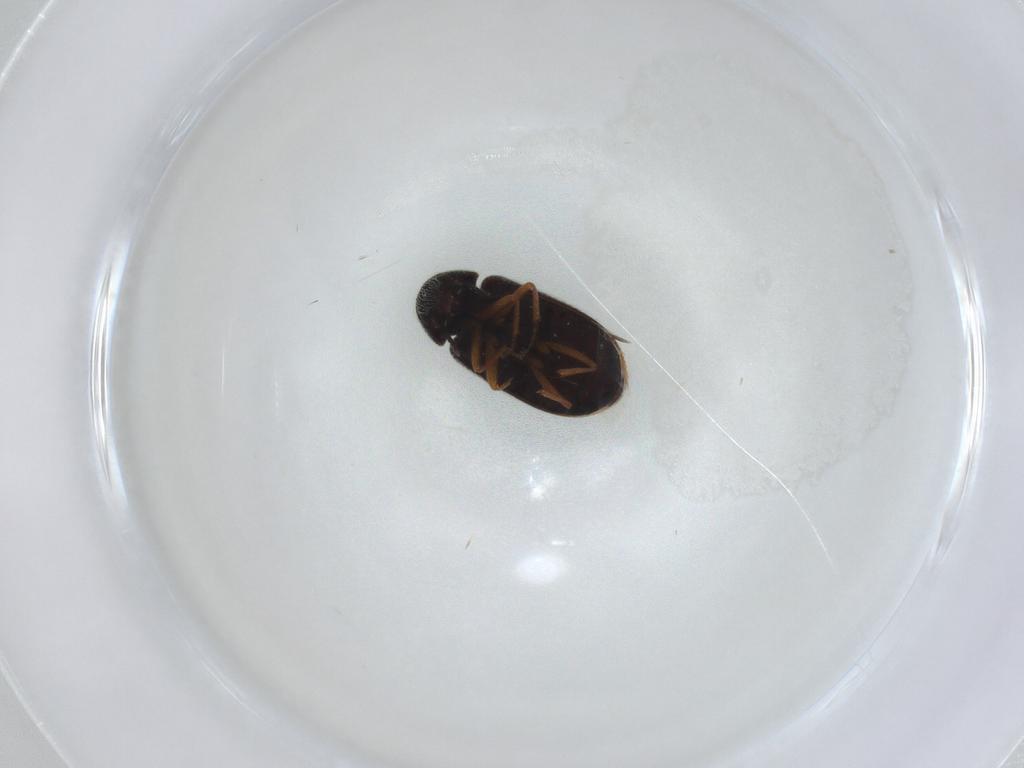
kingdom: Animalia
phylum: Arthropoda
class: Insecta
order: Coleoptera
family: Rhadalidae
